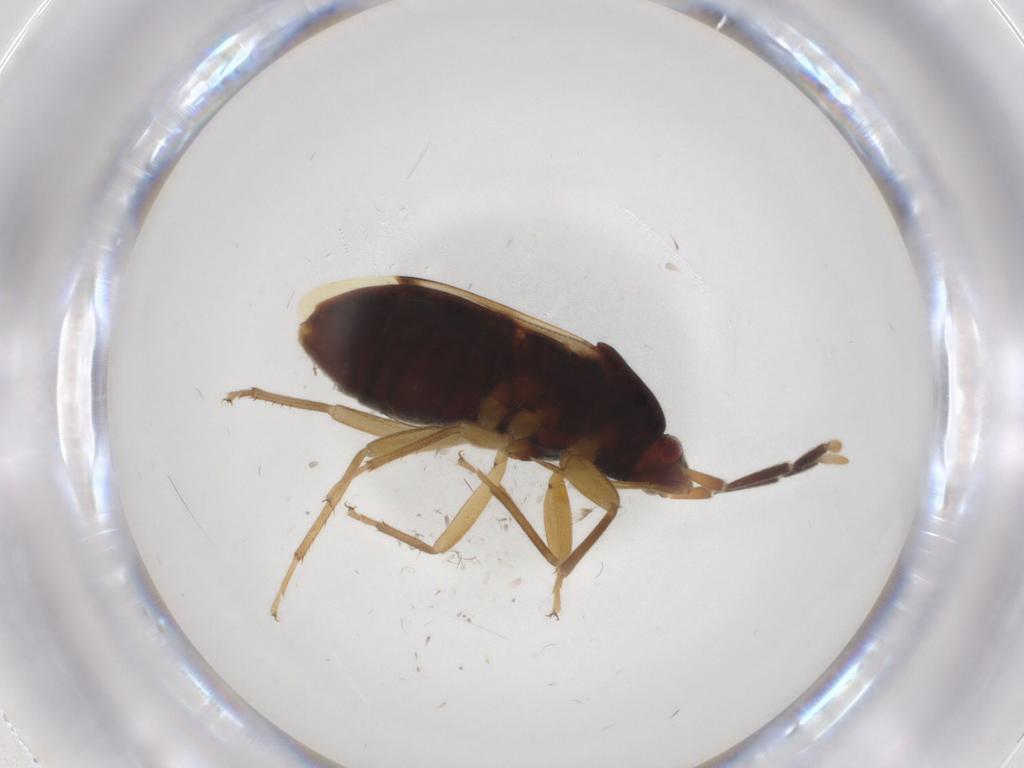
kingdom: Animalia
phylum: Arthropoda
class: Insecta
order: Hemiptera
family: Rhyparochromidae
